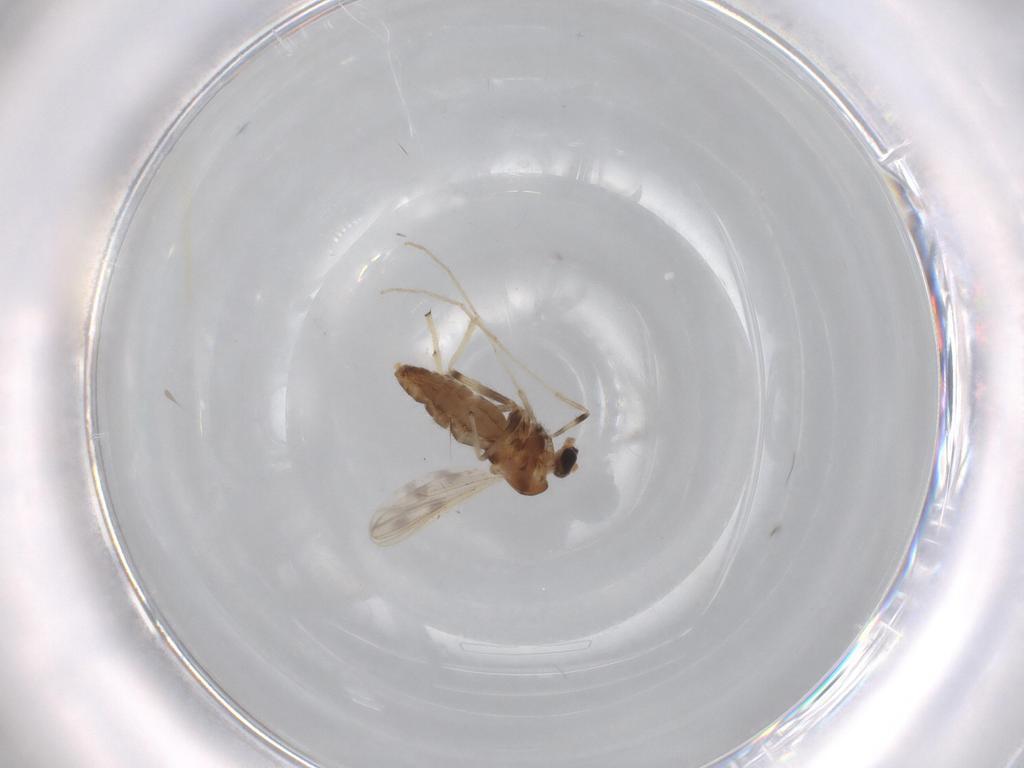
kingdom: Animalia
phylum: Arthropoda
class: Insecta
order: Diptera
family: Chironomidae
